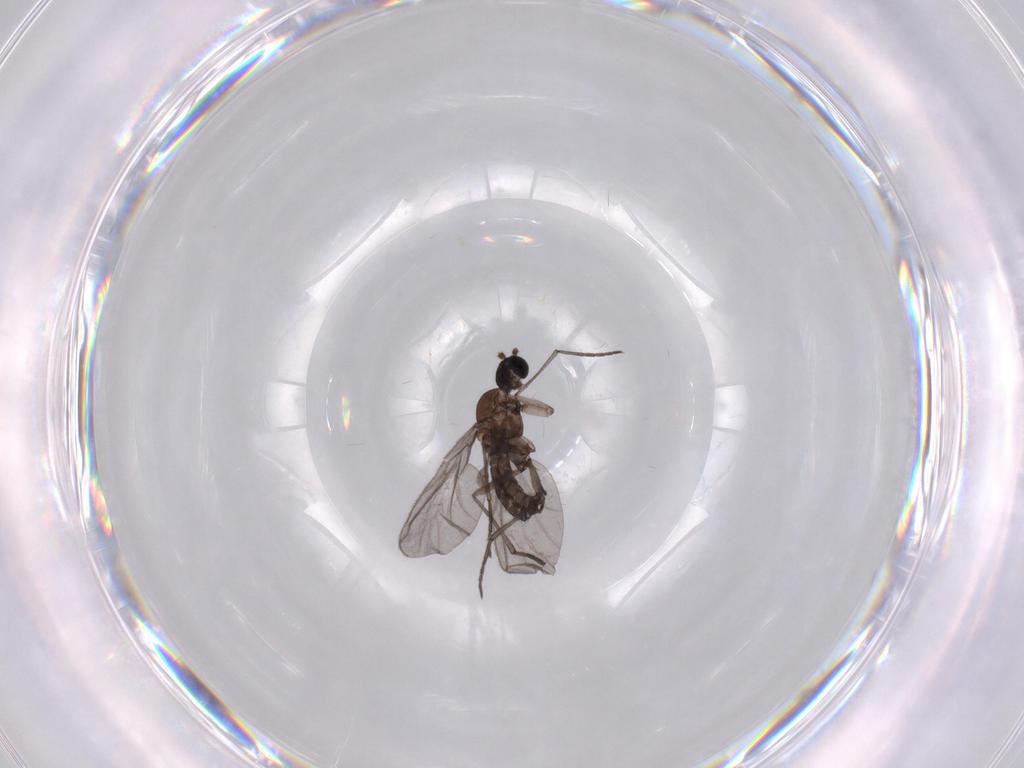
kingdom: Animalia
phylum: Arthropoda
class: Insecta
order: Diptera
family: Sciaridae
